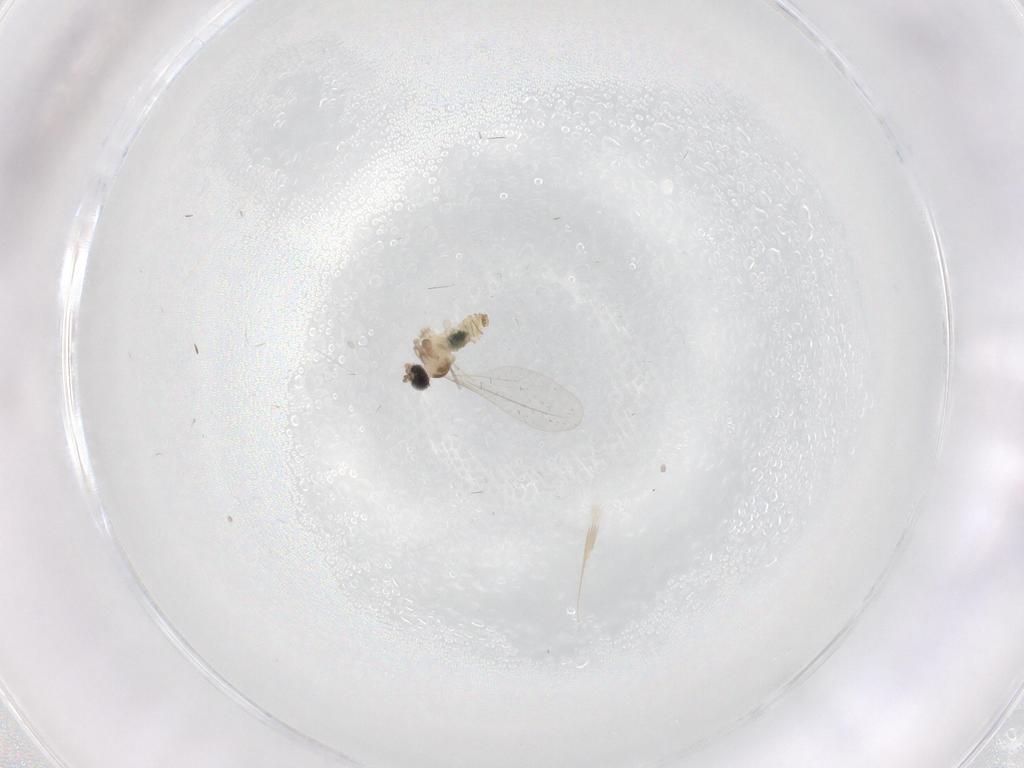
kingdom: Animalia
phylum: Arthropoda
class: Insecta
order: Diptera
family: Cecidomyiidae
